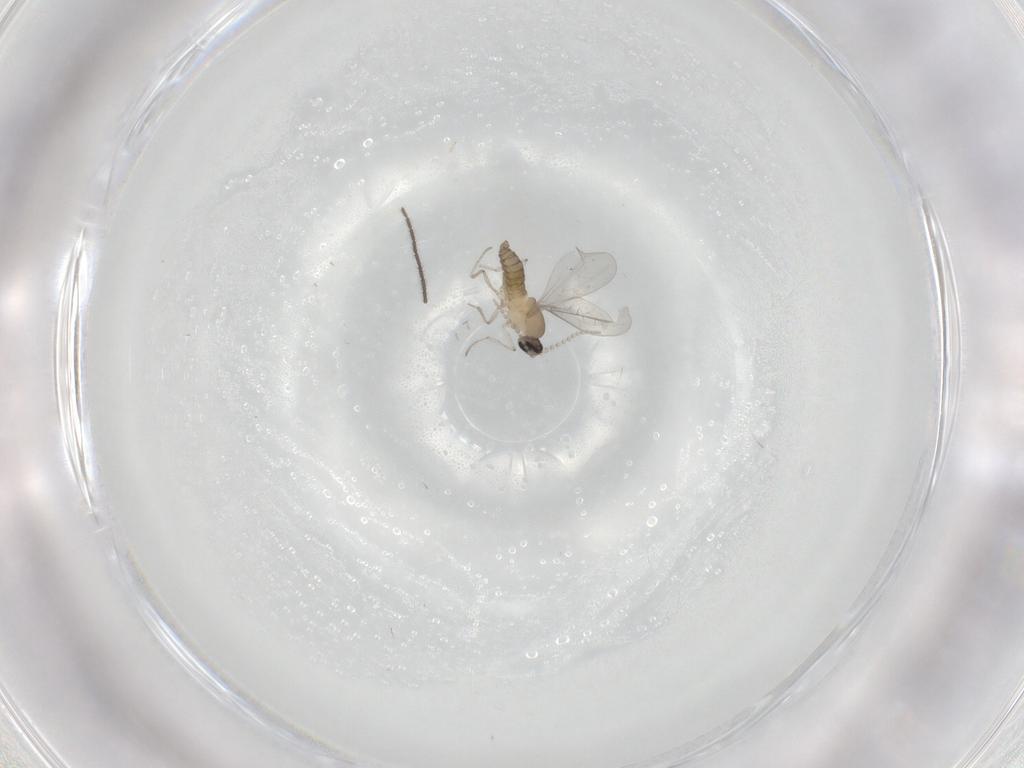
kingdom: Animalia
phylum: Arthropoda
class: Insecta
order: Diptera
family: Cecidomyiidae
